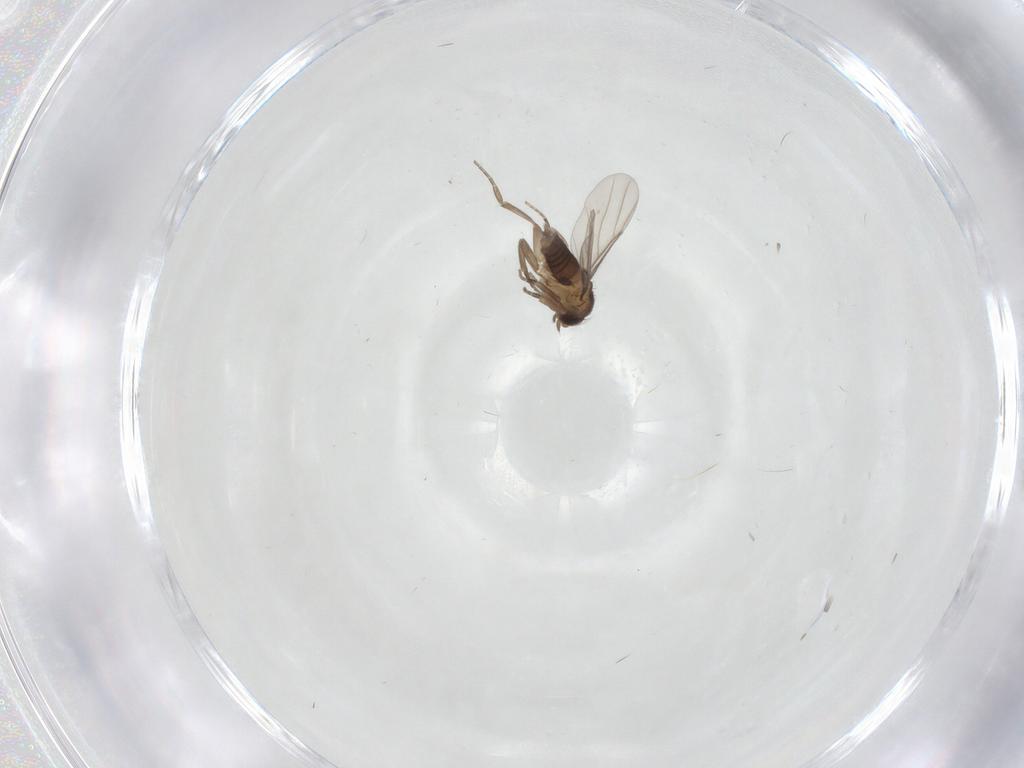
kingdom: Animalia
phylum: Arthropoda
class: Insecta
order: Diptera
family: Phoridae
